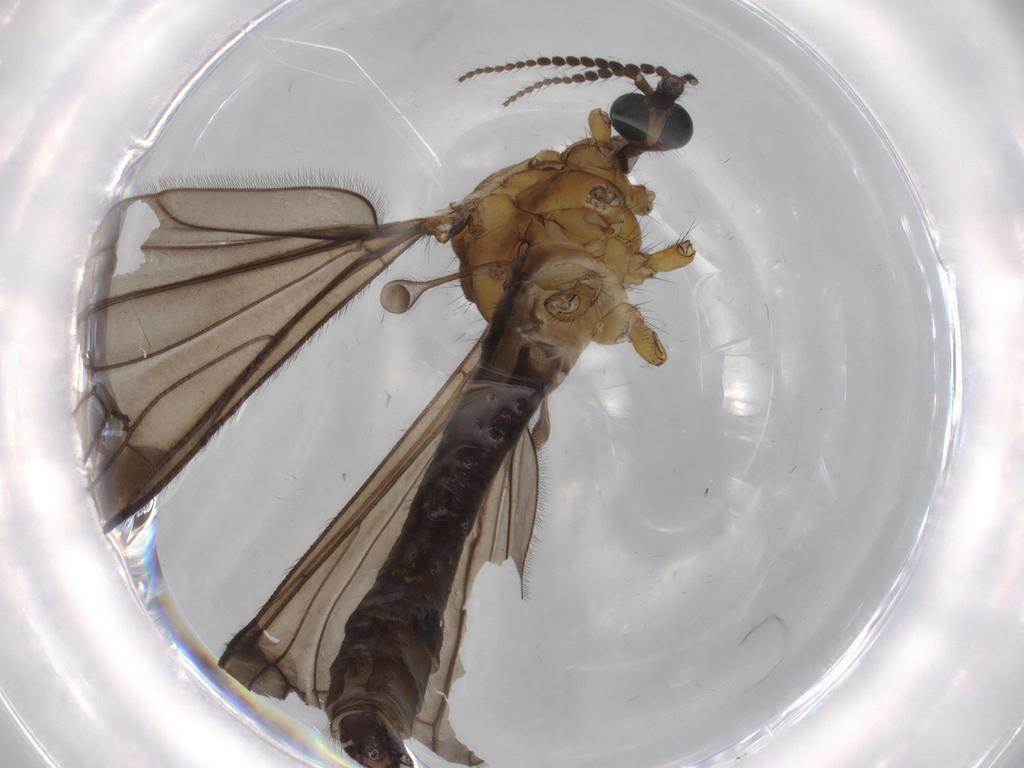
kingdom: Animalia
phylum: Arthropoda
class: Insecta
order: Diptera
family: Limoniidae
